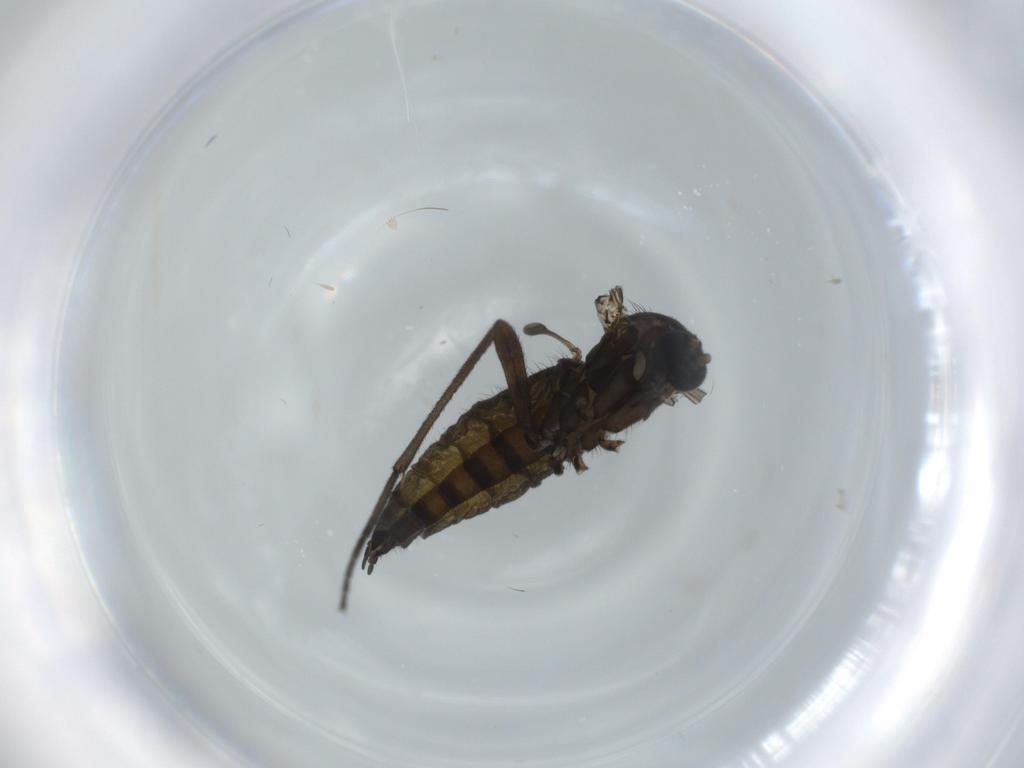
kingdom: Animalia
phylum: Arthropoda
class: Insecta
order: Diptera
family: Sciaridae
